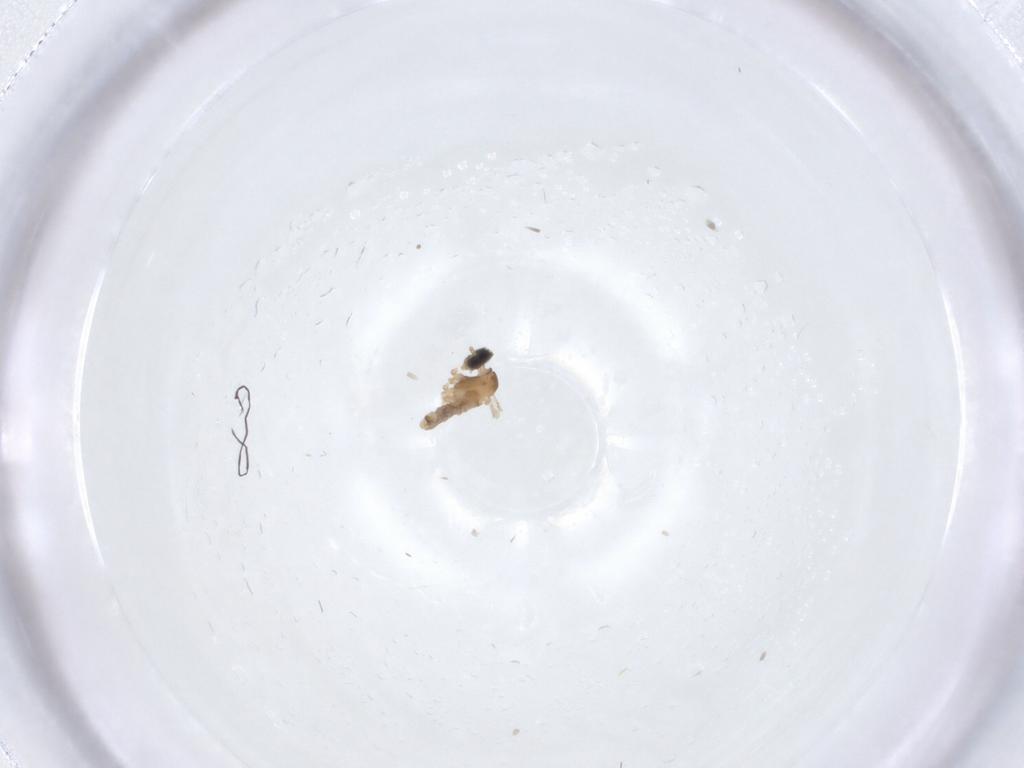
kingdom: Animalia
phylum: Arthropoda
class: Insecta
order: Diptera
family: Cecidomyiidae
